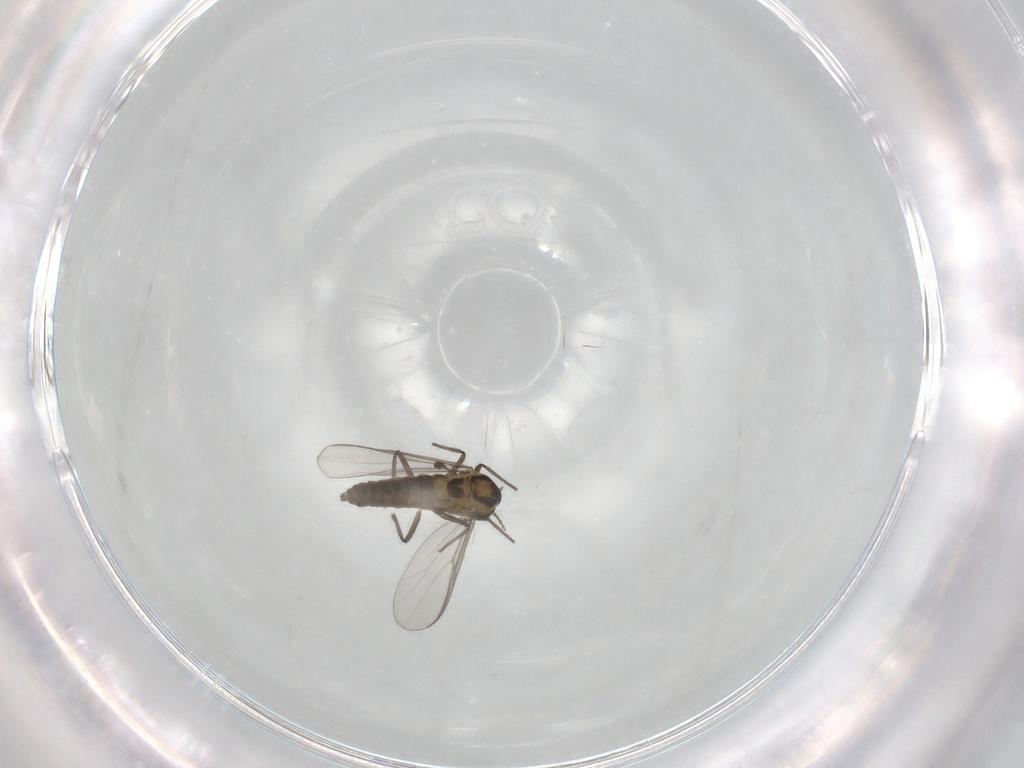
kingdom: Animalia
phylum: Arthropoda
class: Insecta
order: Diptera
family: Chironomidae
